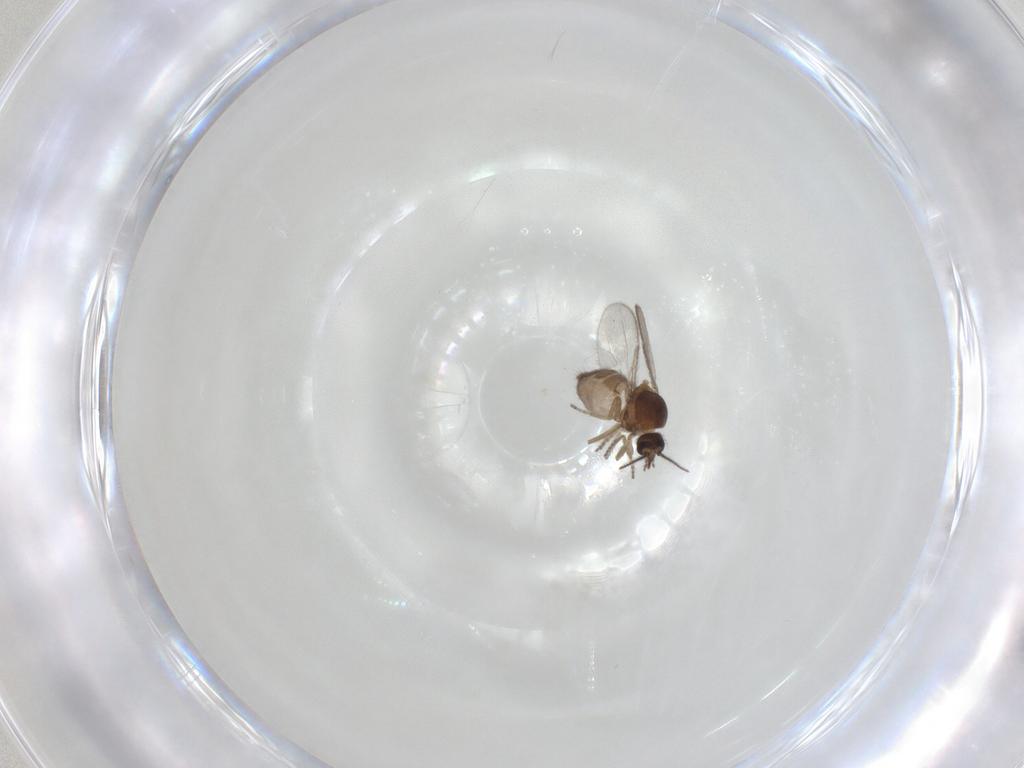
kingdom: Animalia
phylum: Arthropoda
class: Insecta
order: Diptera
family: Ceratopogonidae
